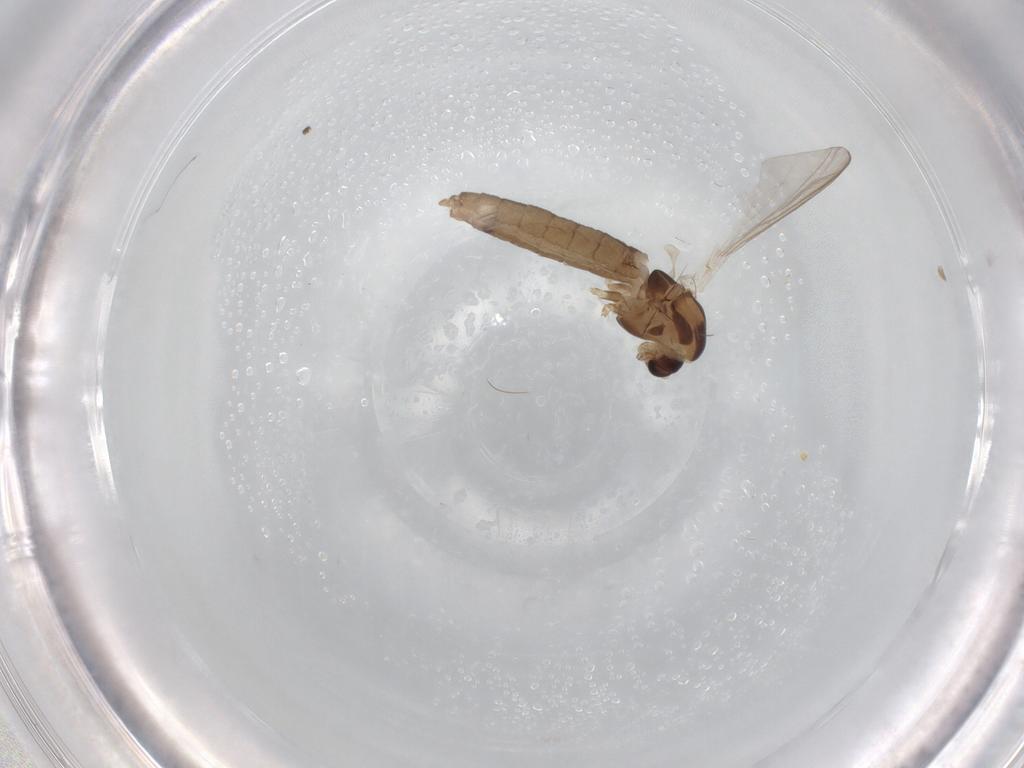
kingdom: Animalia
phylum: Arthropoda
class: Insecta
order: Diptera
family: Chironomidae
